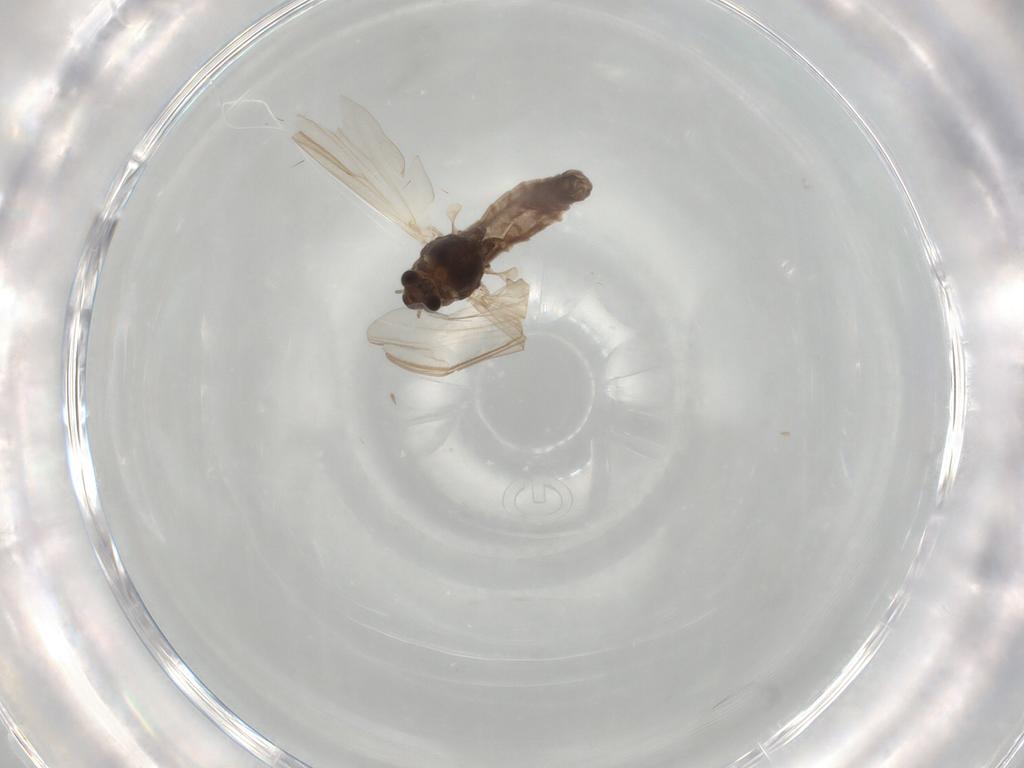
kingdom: Animalia
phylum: Arthropoda
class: Insecta
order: Diptera
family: Chironomidae
